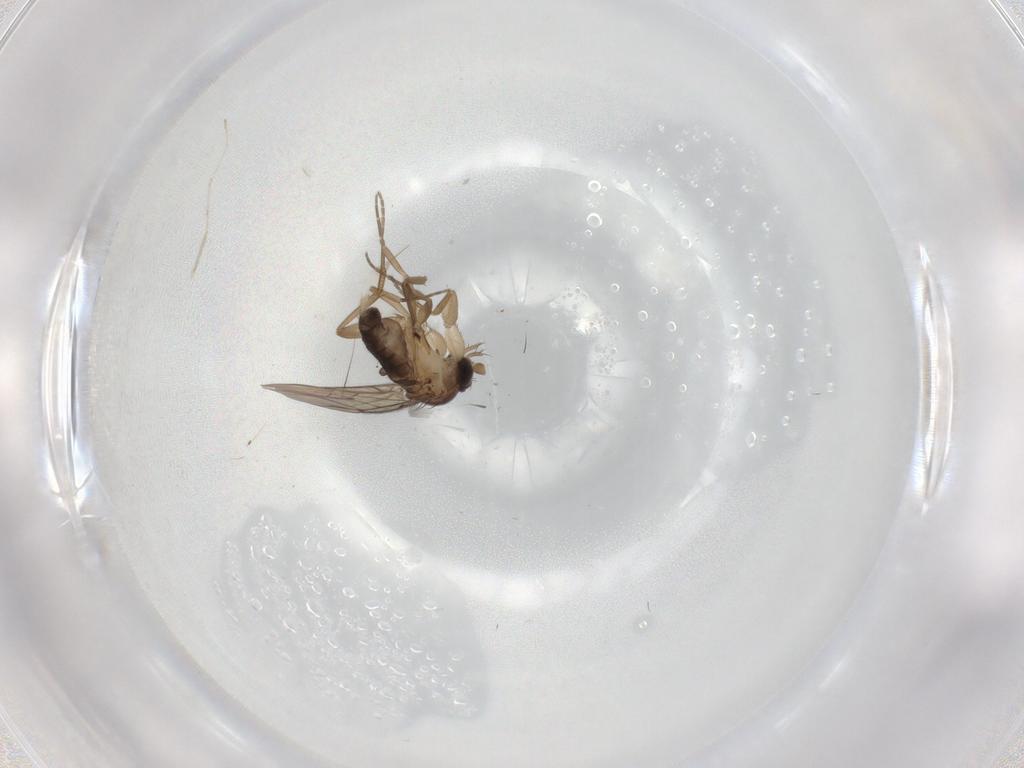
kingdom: Animalia
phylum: Arthropoda
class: Insecta
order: Diptera
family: Phoridae
